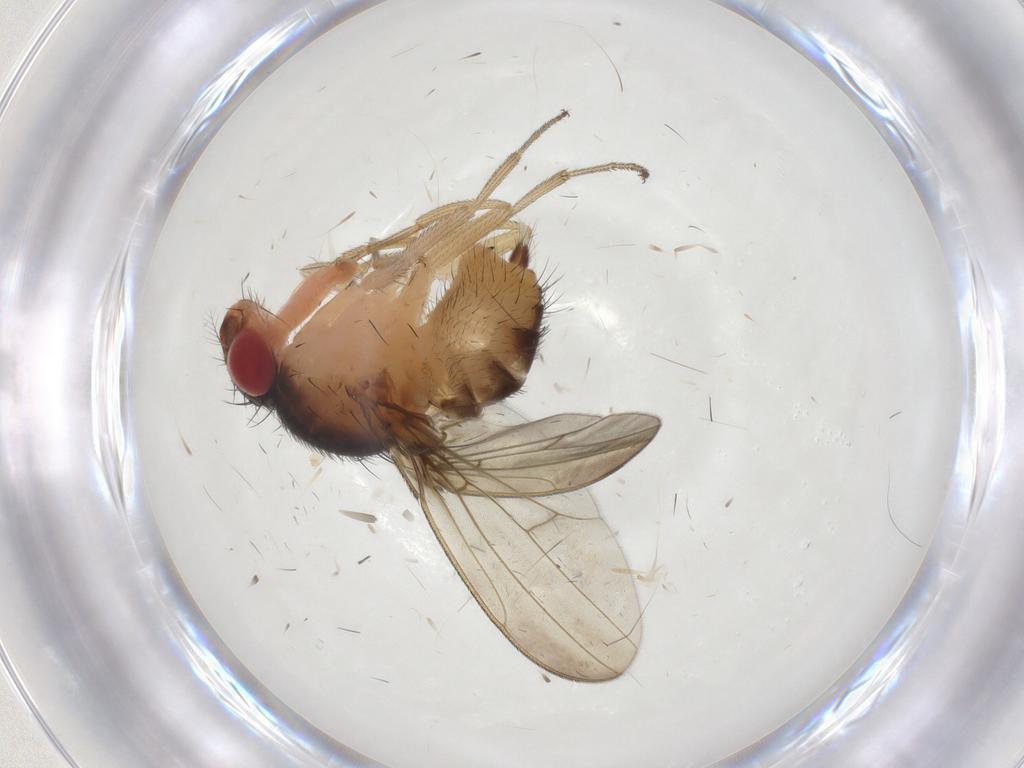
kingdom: Animalia
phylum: Arthropoda
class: Insecta
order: Diptera
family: Drosophilidae
